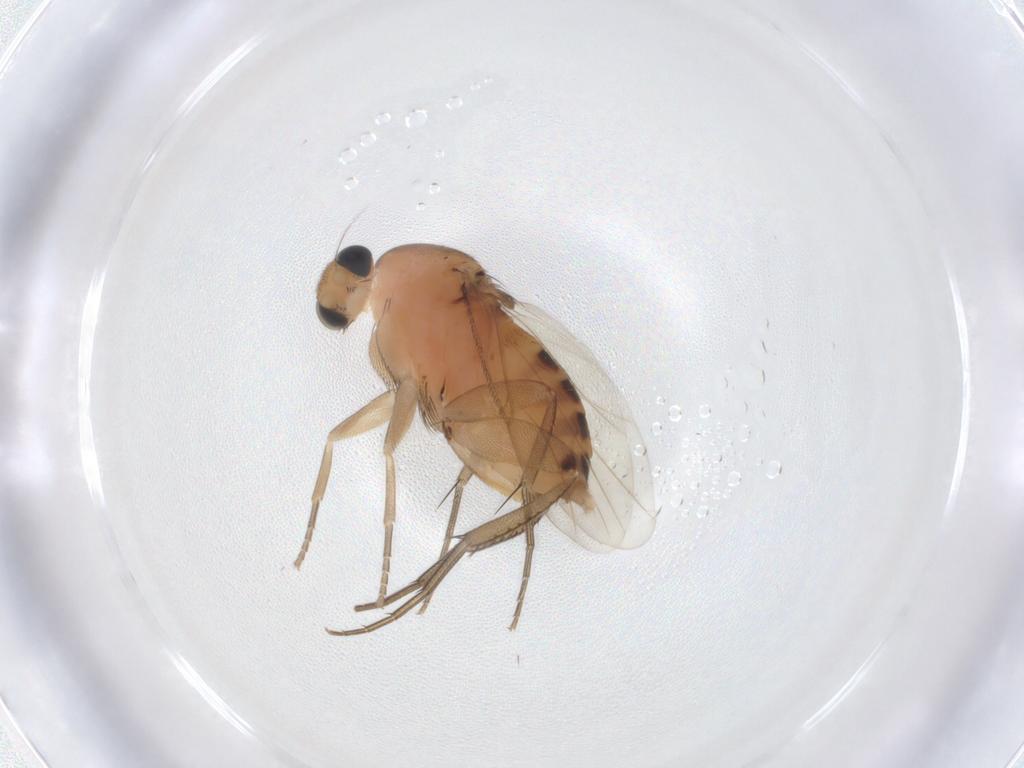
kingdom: Animalia
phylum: Arthropoda
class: Insecta
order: Diptera
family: Phoridae
